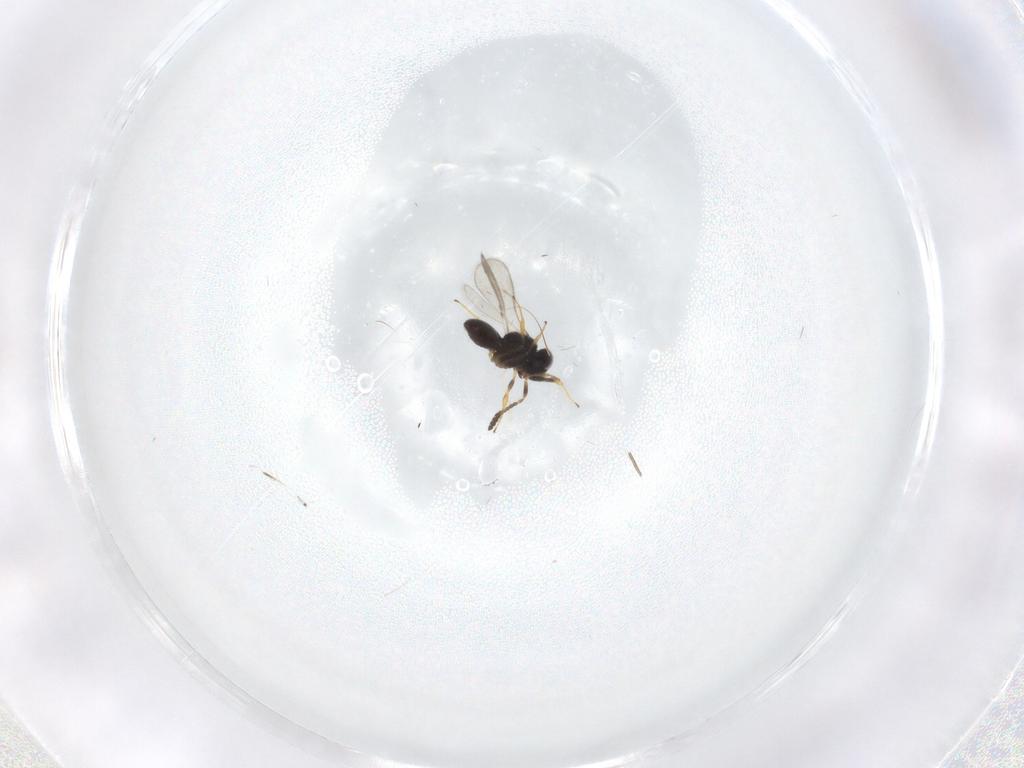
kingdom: Animalia
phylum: Arthropoda
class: Insecta
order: Hymenoptera
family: Scelionidae
